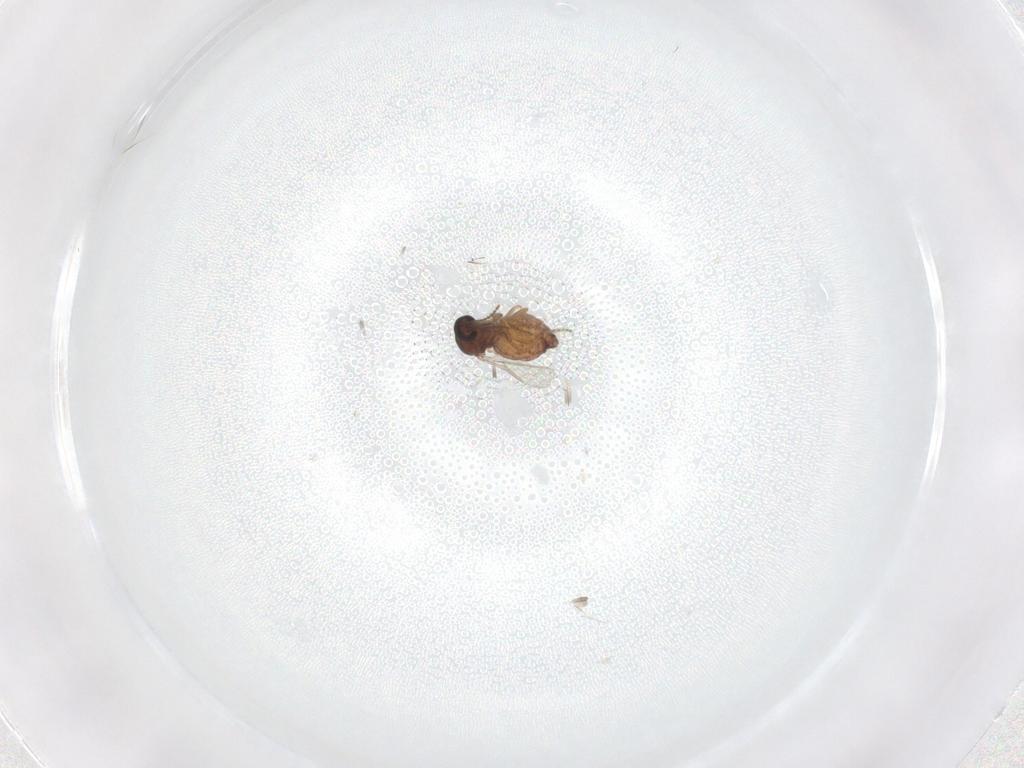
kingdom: Animalia
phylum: Arthropoda
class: Insecta
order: Diptera
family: Ceratopogonidae
